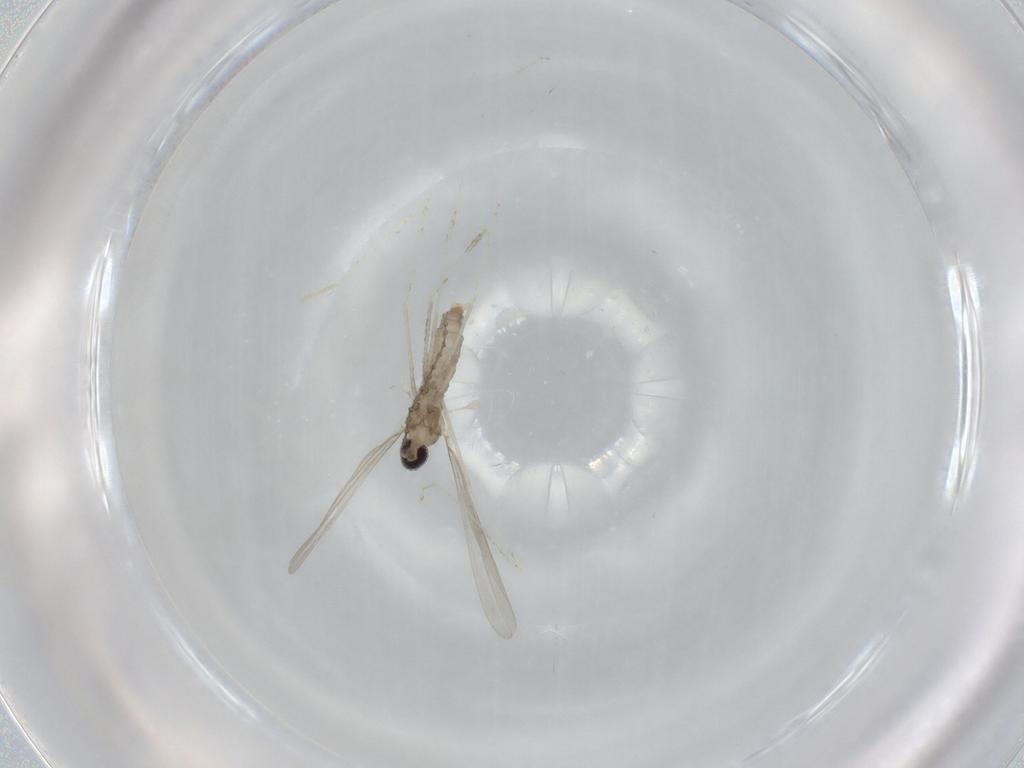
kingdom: Animalia
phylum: Arthropoda
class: Insecta
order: Diptera
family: Cecidomyiidae
